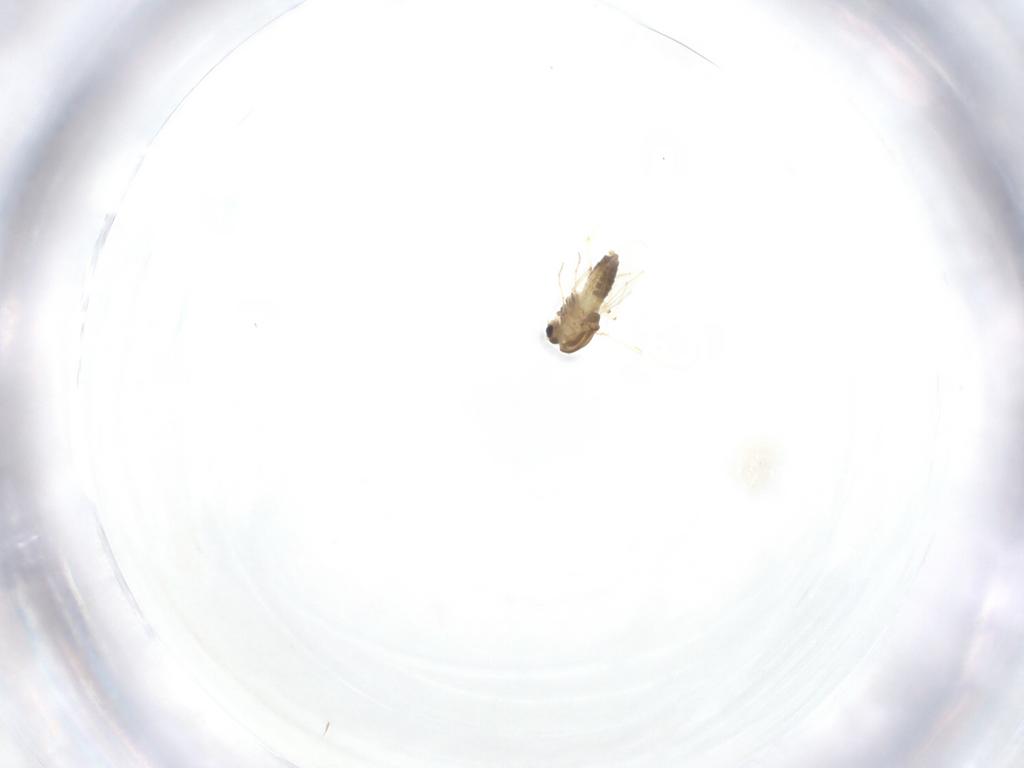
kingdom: Animalia
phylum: Arthropoda
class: Insecta
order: Diptera
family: Chironomidae
